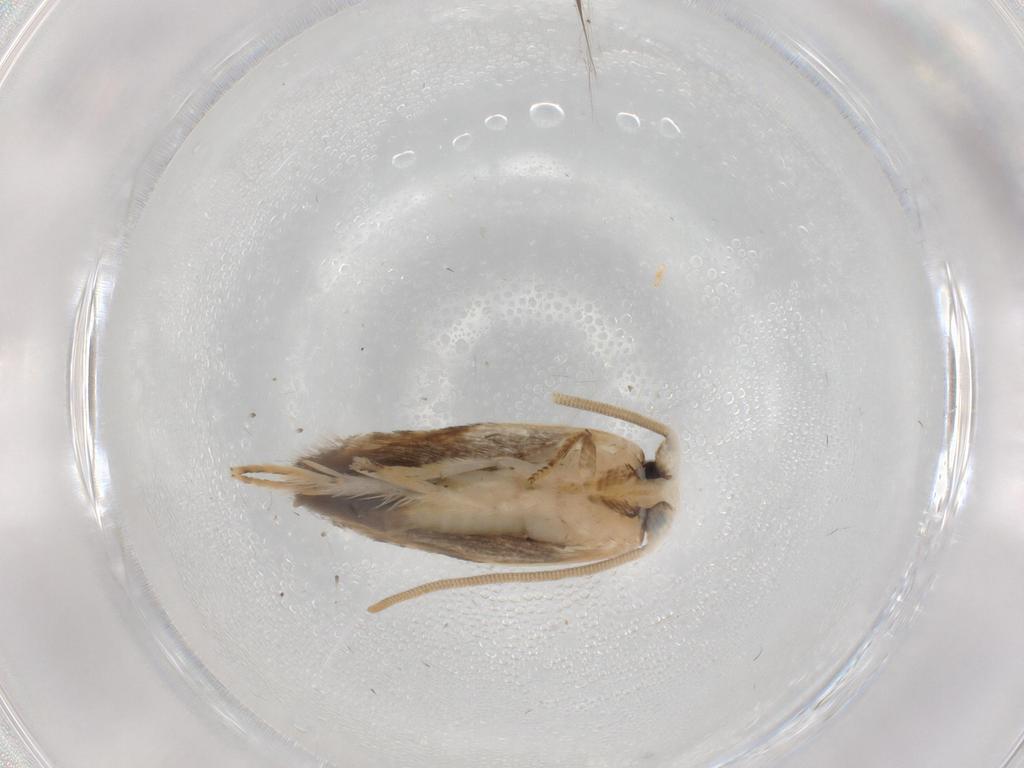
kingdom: Animalia
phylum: Arthropoda
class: Insecta
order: Lepidoptera
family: Opostegidae
